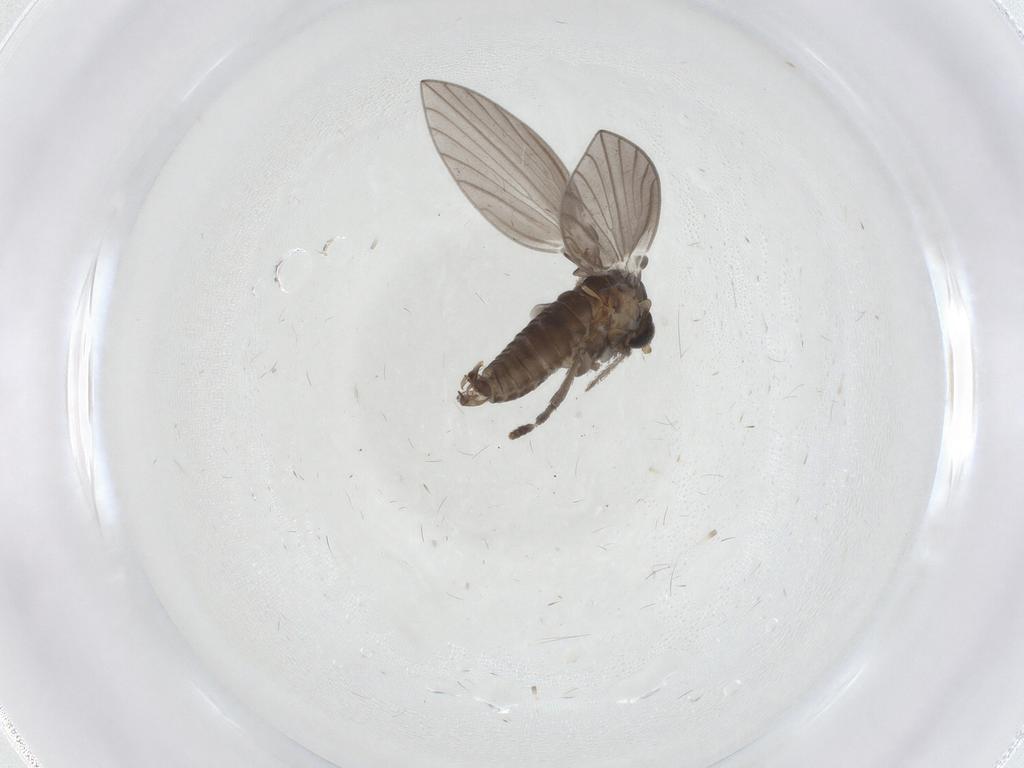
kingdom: Animalia
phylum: Arthropoda
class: Insecta
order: Diptera
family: Psychodidae
